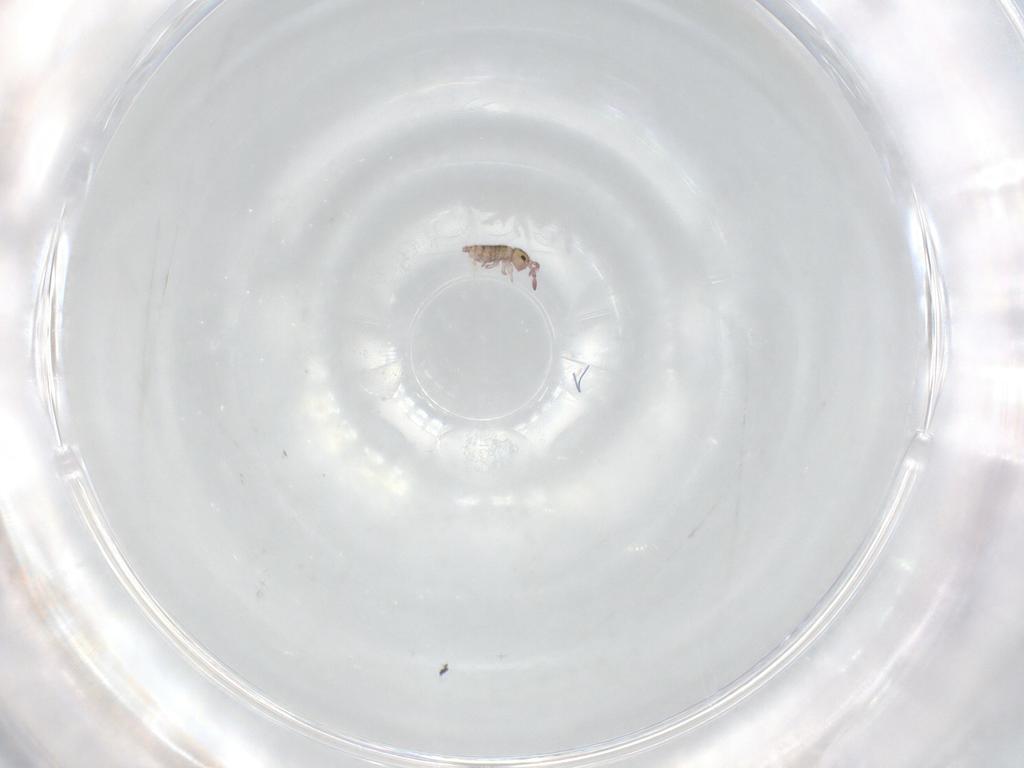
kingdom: Animalia
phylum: Arthropoda
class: Collembola
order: Entomobryomorpha
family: Isotomidae
